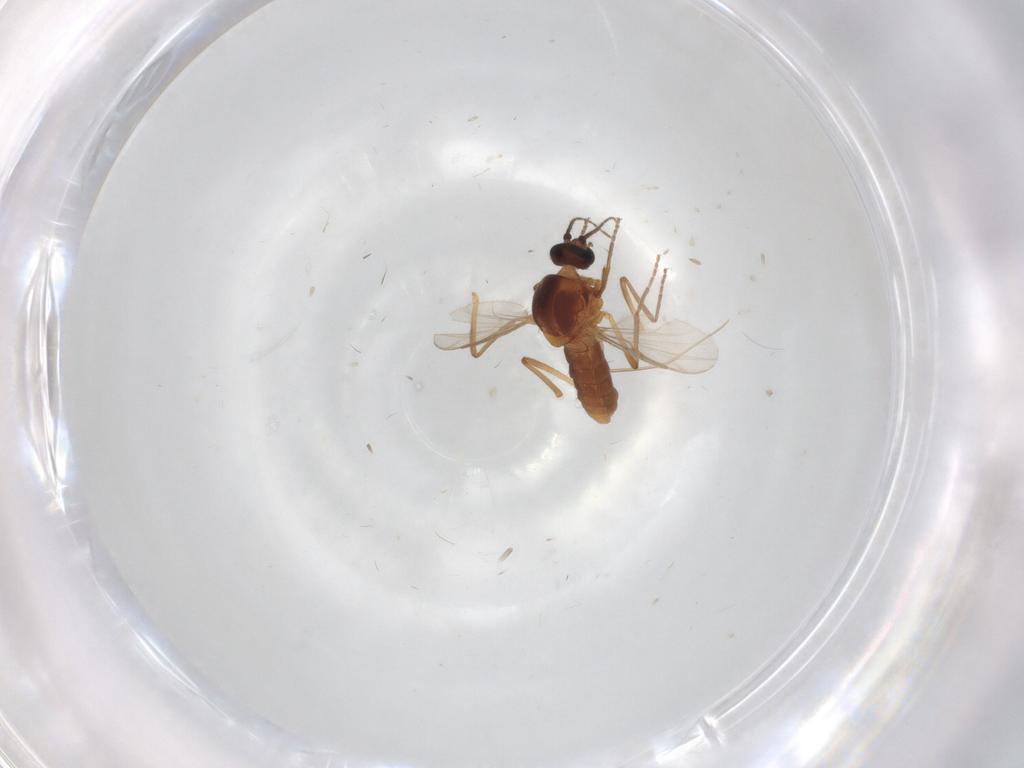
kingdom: Animalia
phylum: Arthropoda
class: Insecta
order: Diptera
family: Ceratopogonidae
